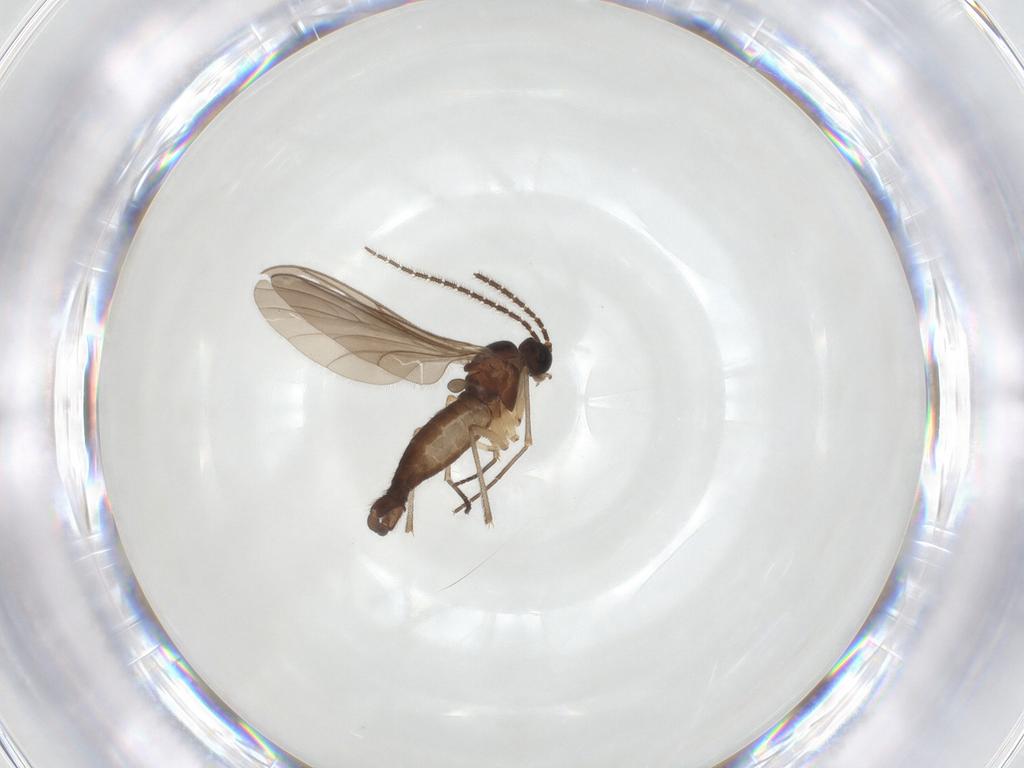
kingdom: Animalia
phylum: Arthropoda
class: Insecta
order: Diptera
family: Sciaridae
